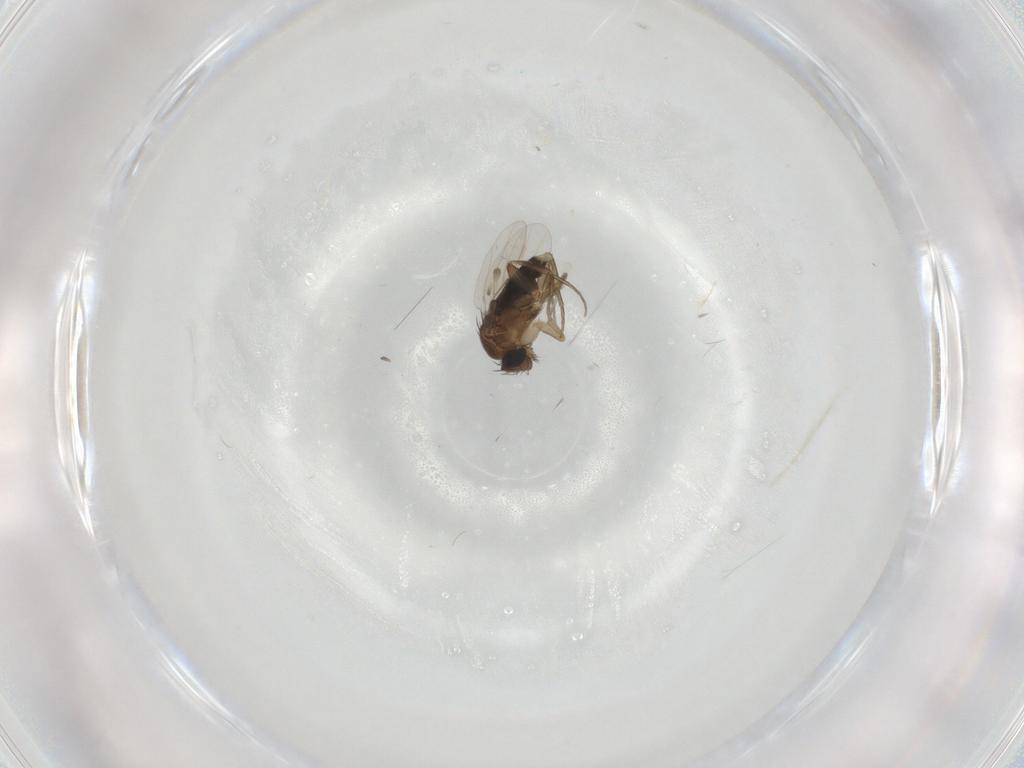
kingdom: Animalia
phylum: Arthropoda
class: Insecta
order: Diptera
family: Phoridae
